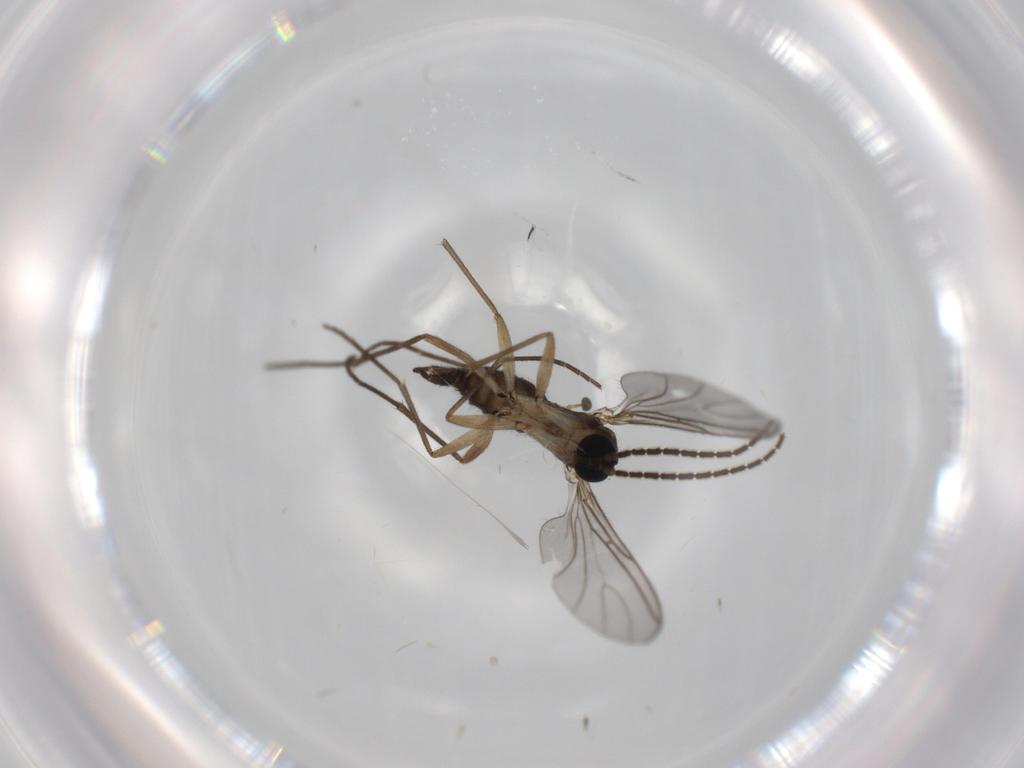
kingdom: Animalia
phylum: Arthropoda
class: Insecta
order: Diptera
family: Sciaridae
